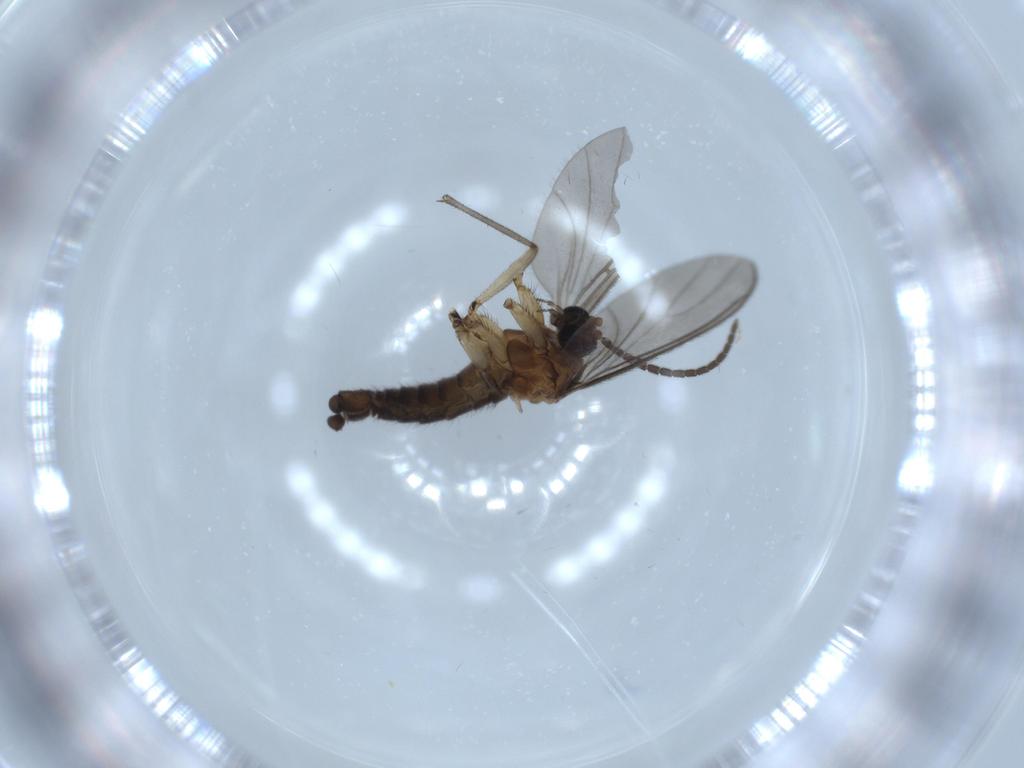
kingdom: Animalia
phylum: Arthropoda
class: Insecta
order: Diptera
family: Sciaridae
